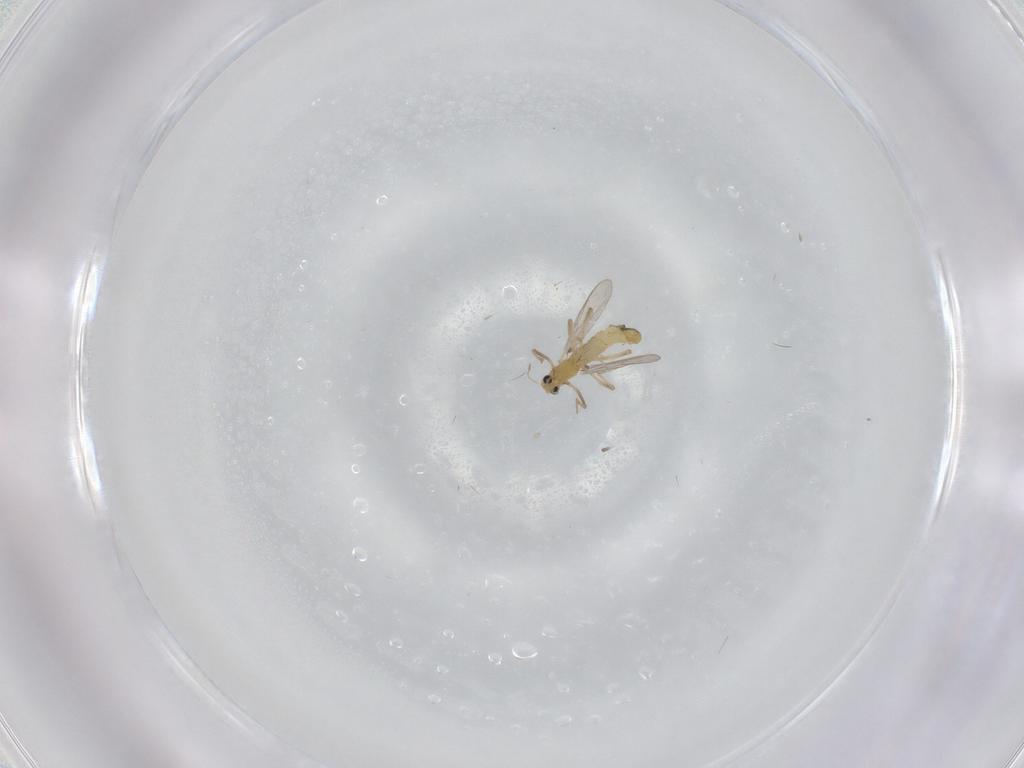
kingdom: Animalia
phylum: Arthropoda
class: Insecta
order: Diptera
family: Chironomidae
